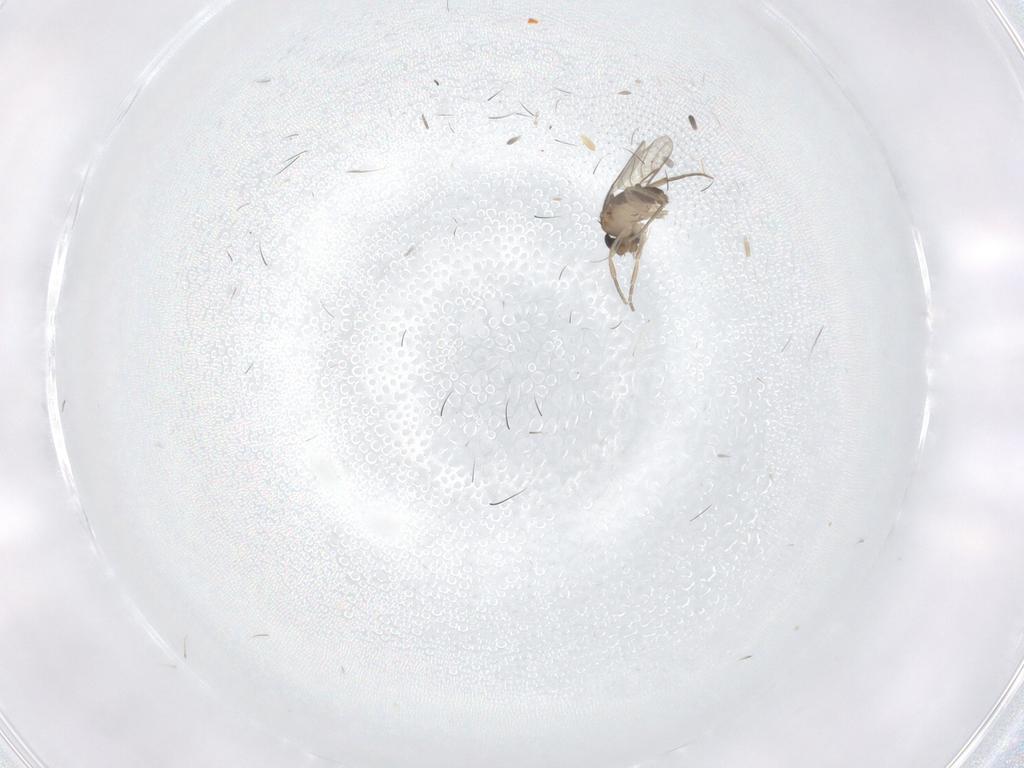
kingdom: Animalia
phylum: Arthropoda
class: Insecta
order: Diptera
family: Phoridae
